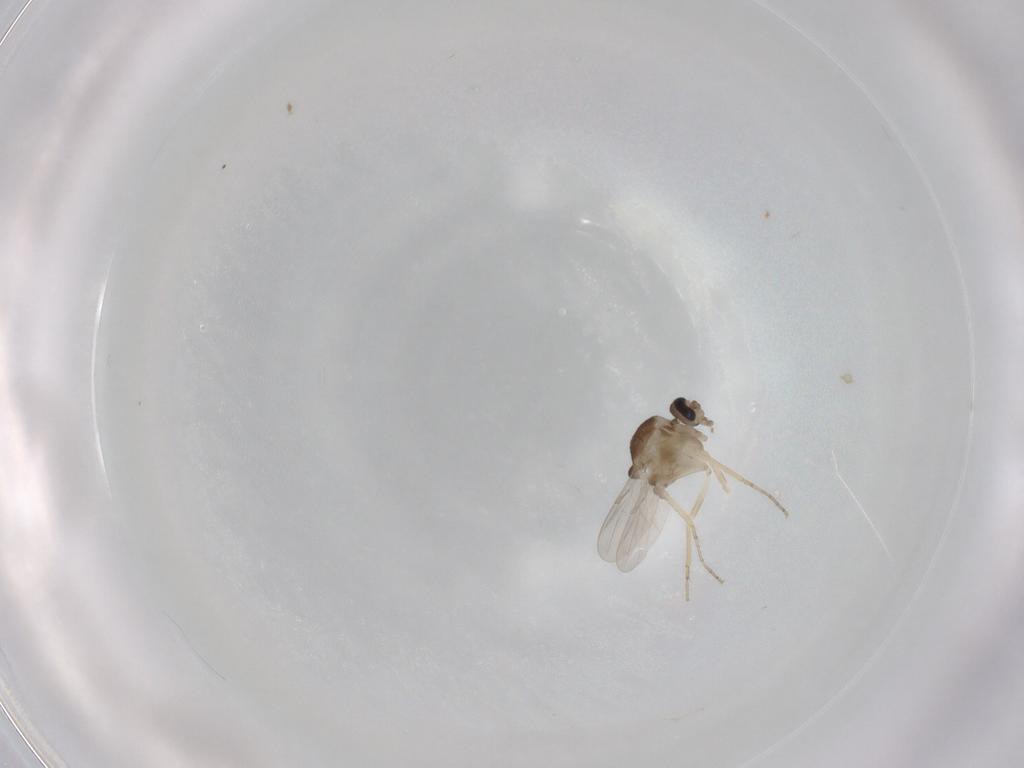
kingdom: Animalia
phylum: Arthropoda
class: Insecta
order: Diptera
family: Ceratopogonidae
